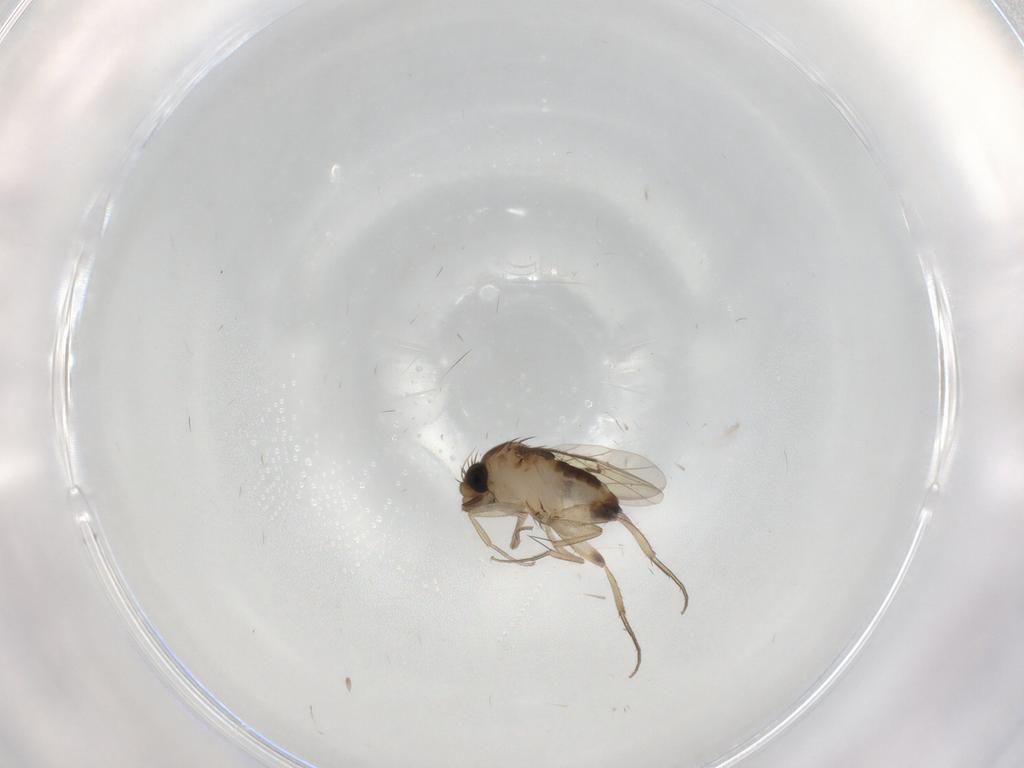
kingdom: Animalia
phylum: Arthropoda
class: Insecta
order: Diptera
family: Phoridae
